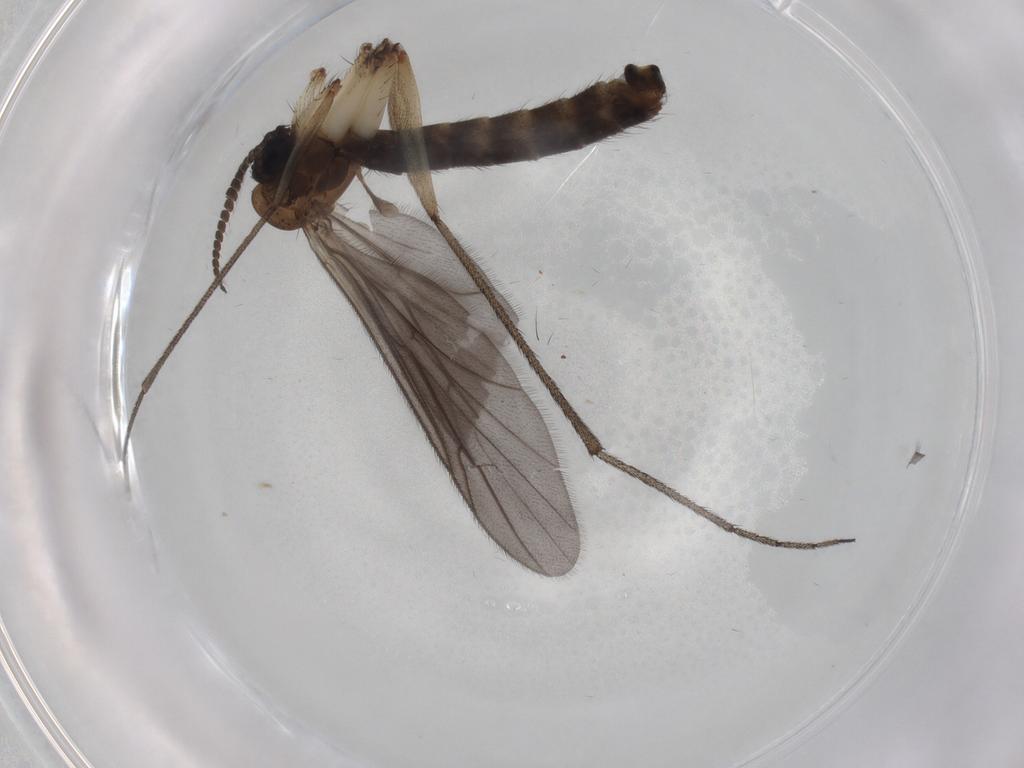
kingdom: Animalia
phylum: Arthropoda
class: Insecta
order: Diptera
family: Ditomyiidae
